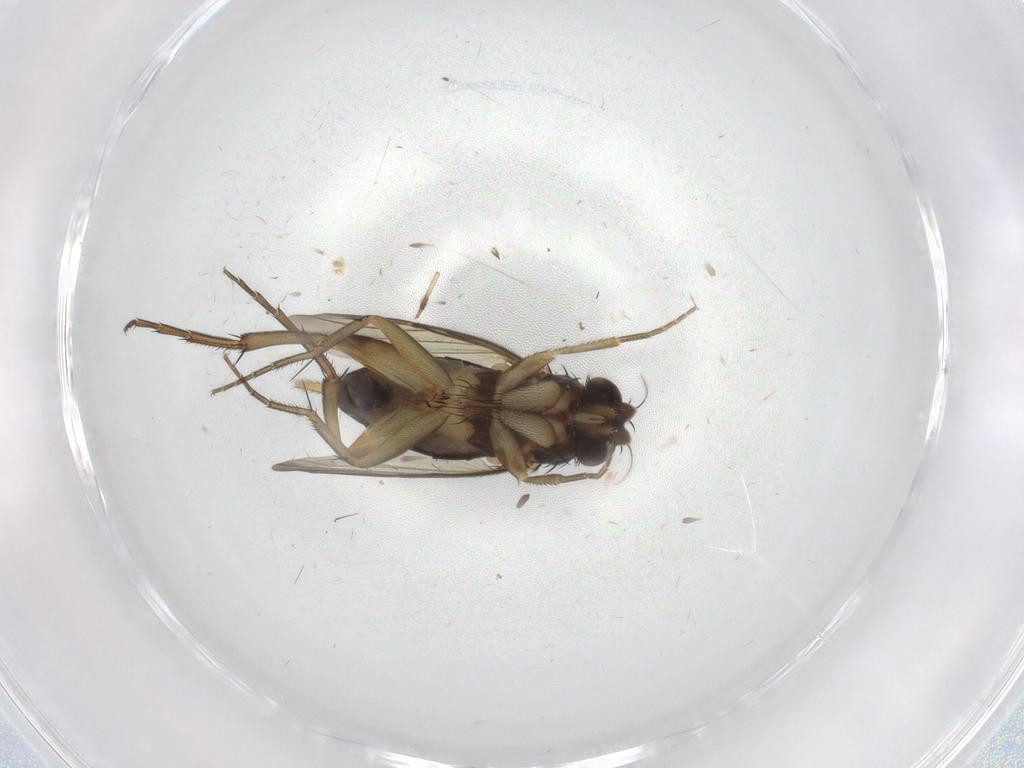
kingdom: Animalia
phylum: Arthropoda
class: Insecta
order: Diptera
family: Phoridae
